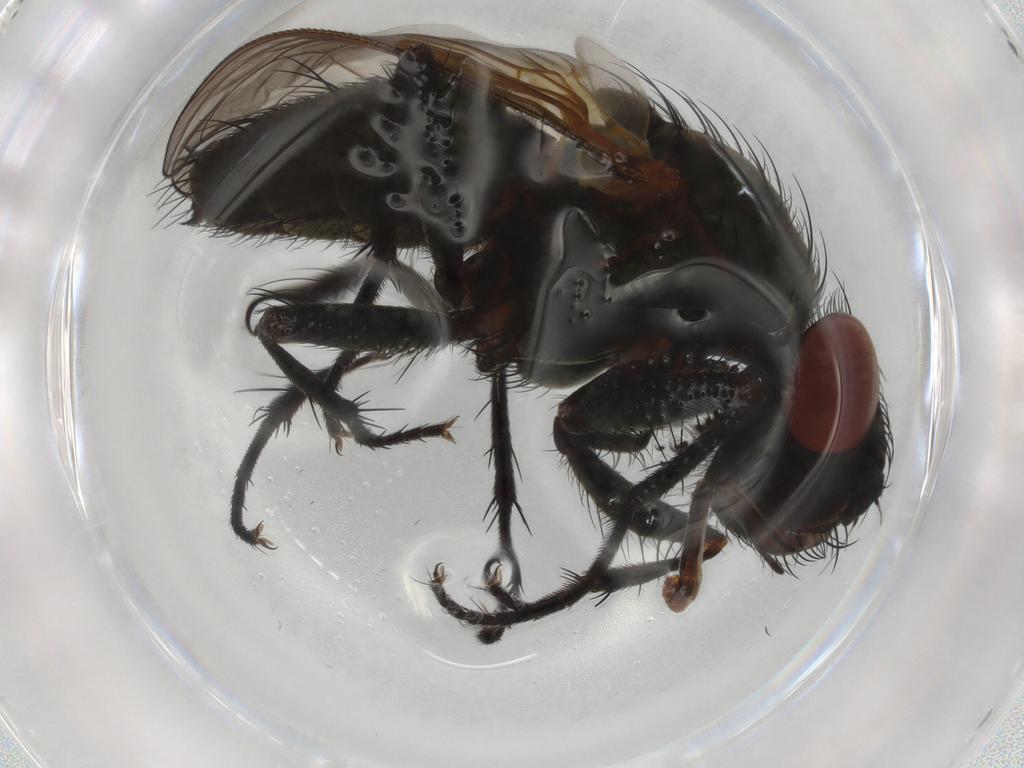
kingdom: Animalia
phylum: Arthropoda
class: Insecta
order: Diptera
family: Anthomyiidae
